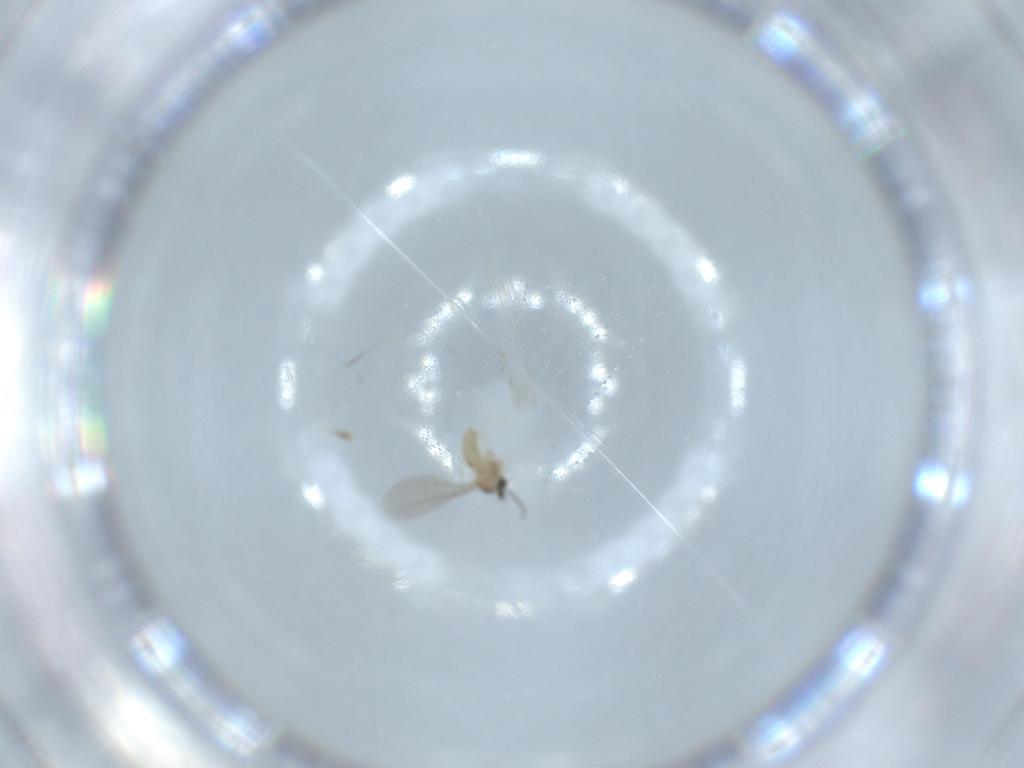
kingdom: Animalia
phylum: Arthropoda
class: Insecta
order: Diptera
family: Cecidomyiidae
